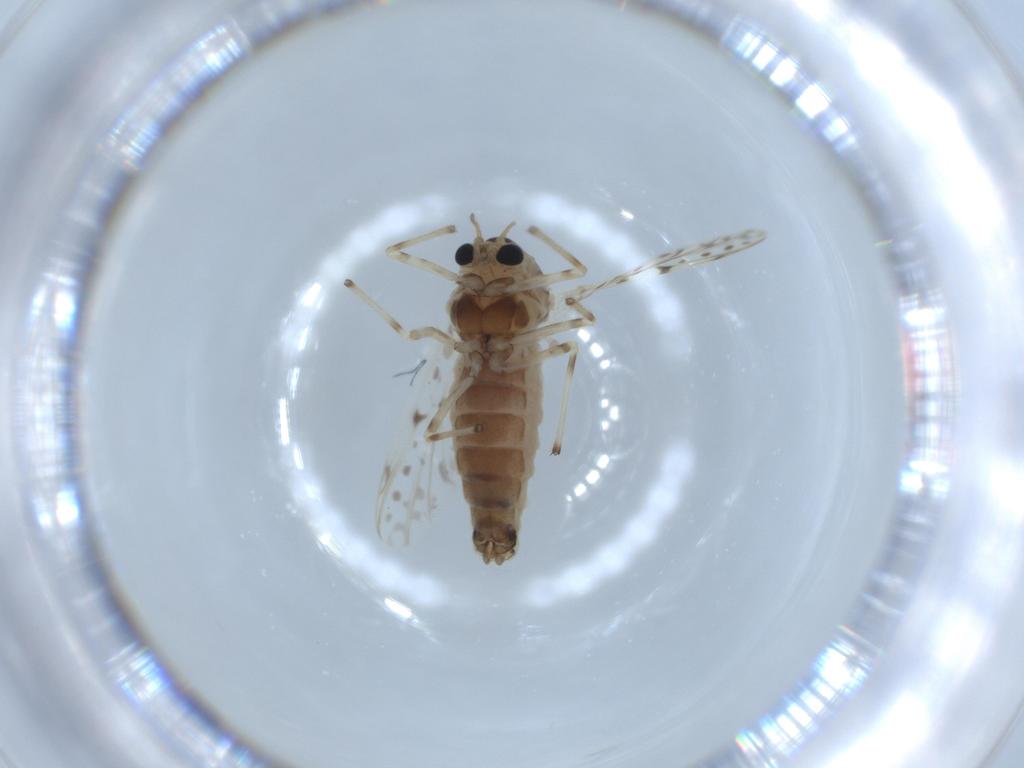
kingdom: Animalia
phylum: Arthropoda
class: Insecta
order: Diptera
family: Chironomidae
